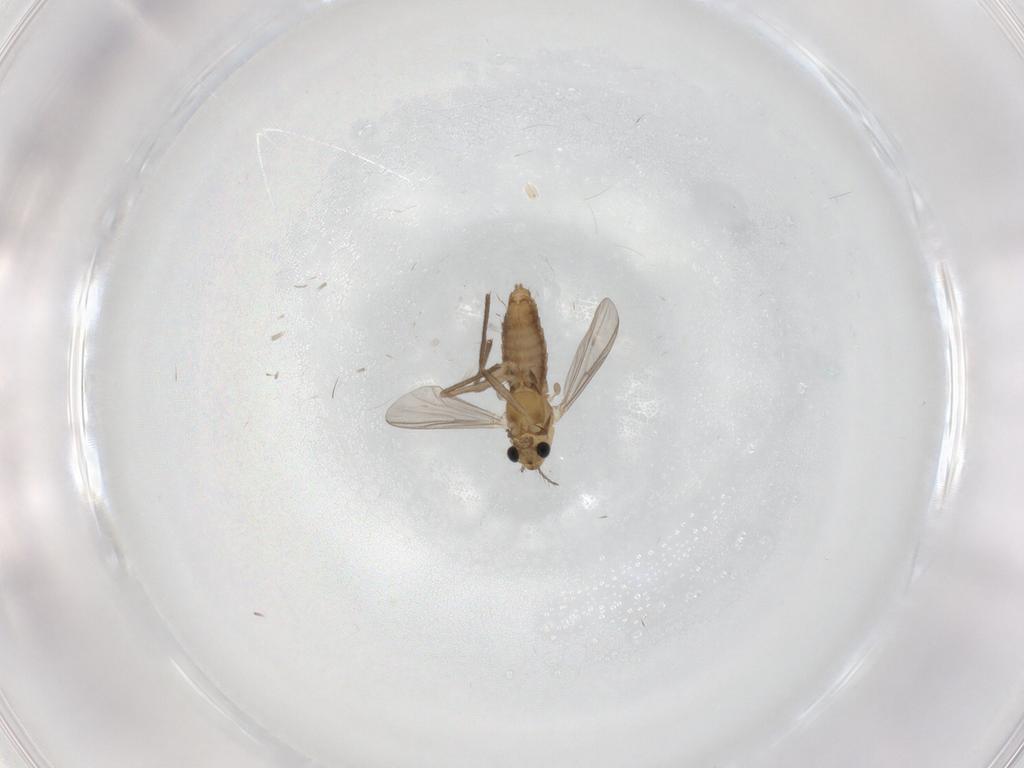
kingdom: Animalia
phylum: Arthropoda
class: Insecta
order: Diptera
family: Chironomidae
